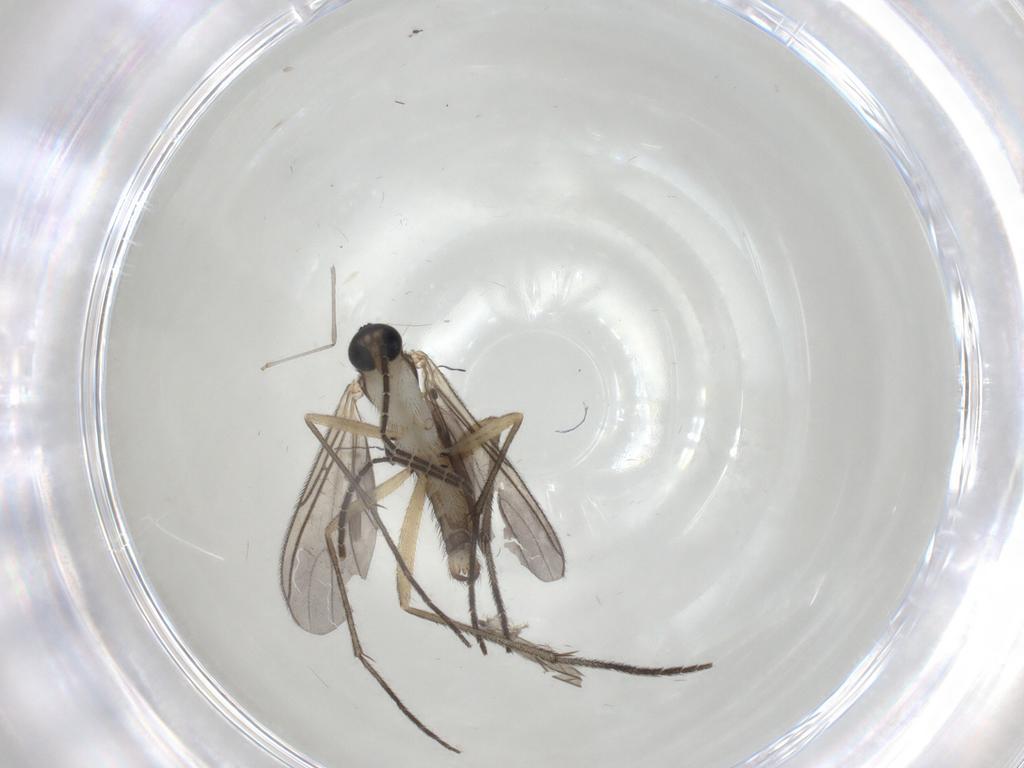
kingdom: Animalia
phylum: Arthropoda
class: Insecta
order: Diptera
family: Sciaridae
